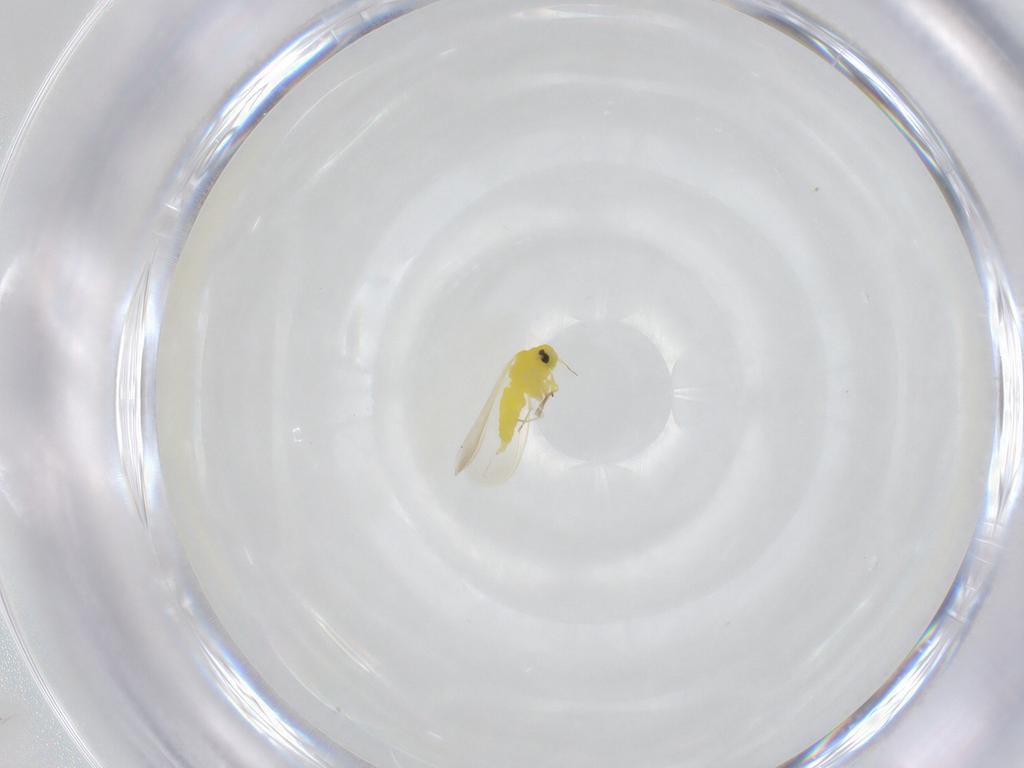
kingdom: Animalia
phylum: Arthropoda
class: Insecta
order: Hemiptera
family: Aleyrodidae
